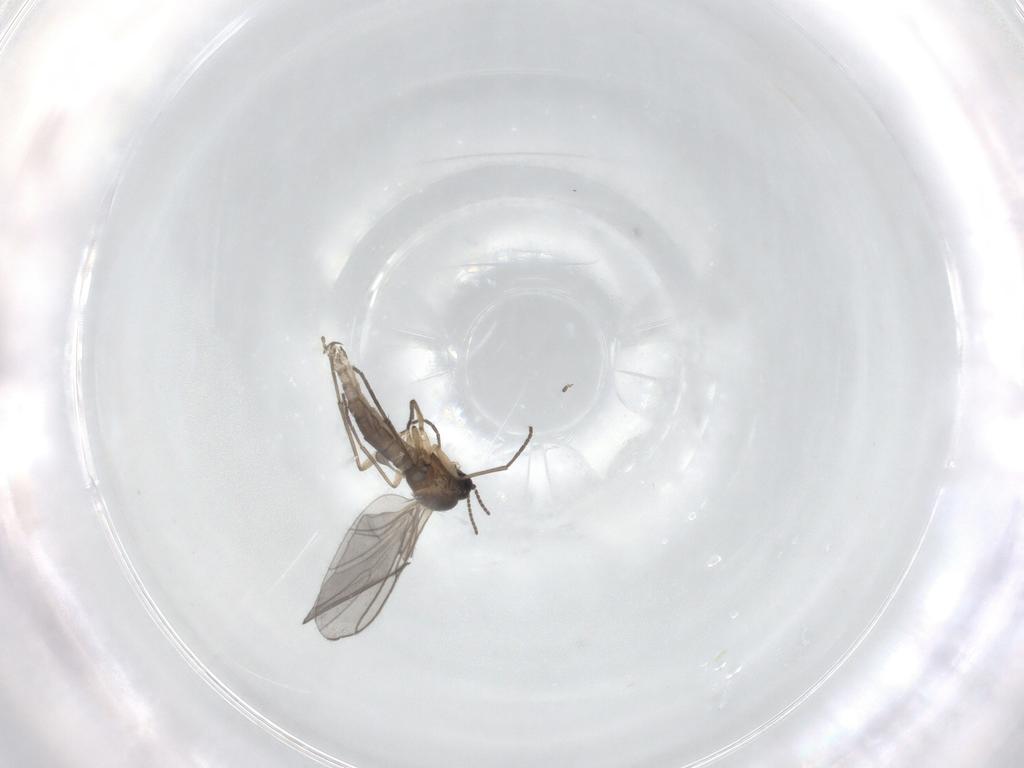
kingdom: Animalia
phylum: Arthropoda
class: Insecta
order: Diptera
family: Sciaridae
